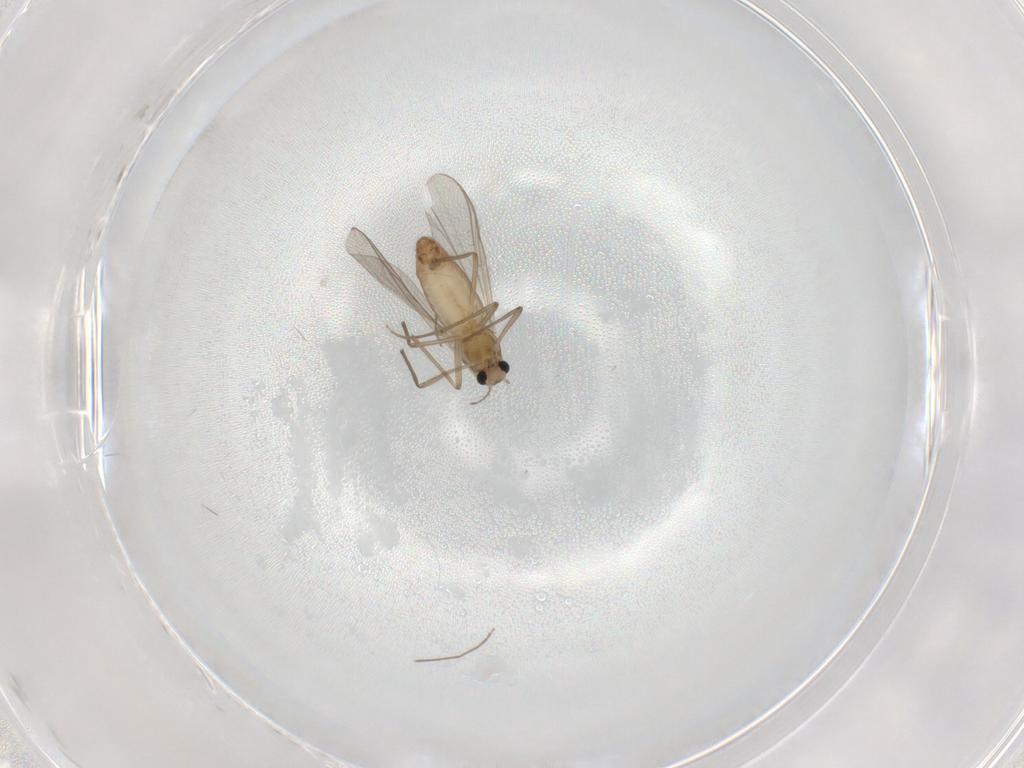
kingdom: Animalia
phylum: Arthropoda
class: Insecta
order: Diptera
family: Chironomidae
